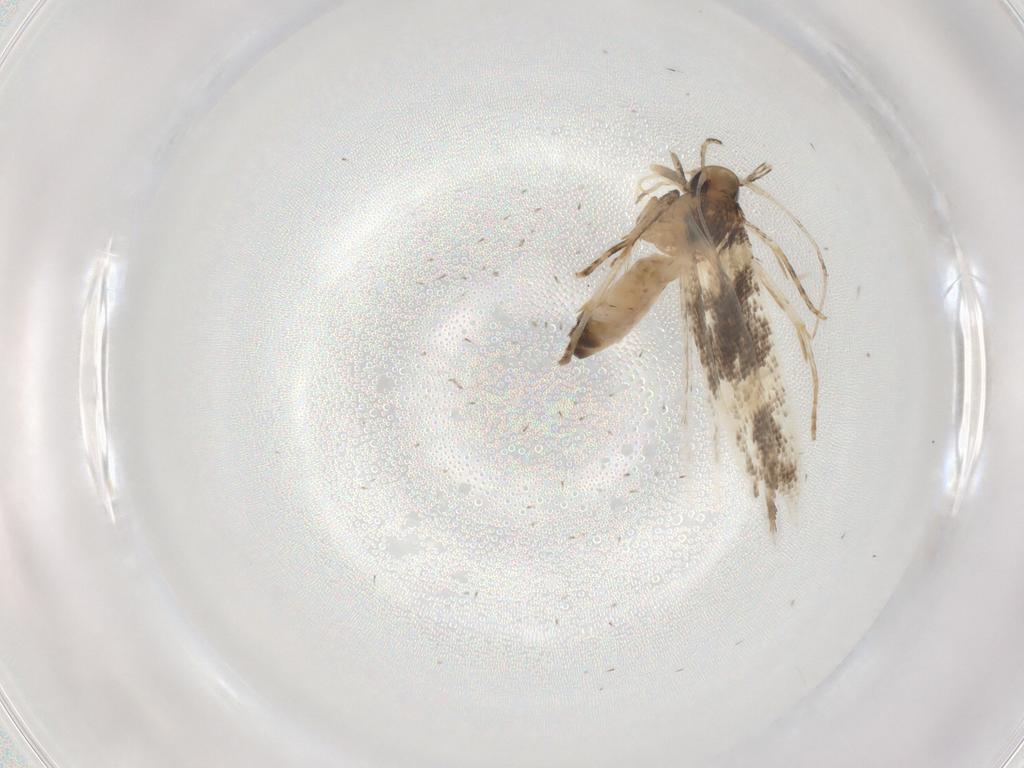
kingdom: Animalia
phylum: Arthropoda
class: Insecta
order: Lepidoptera
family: Cosmopterigidae
